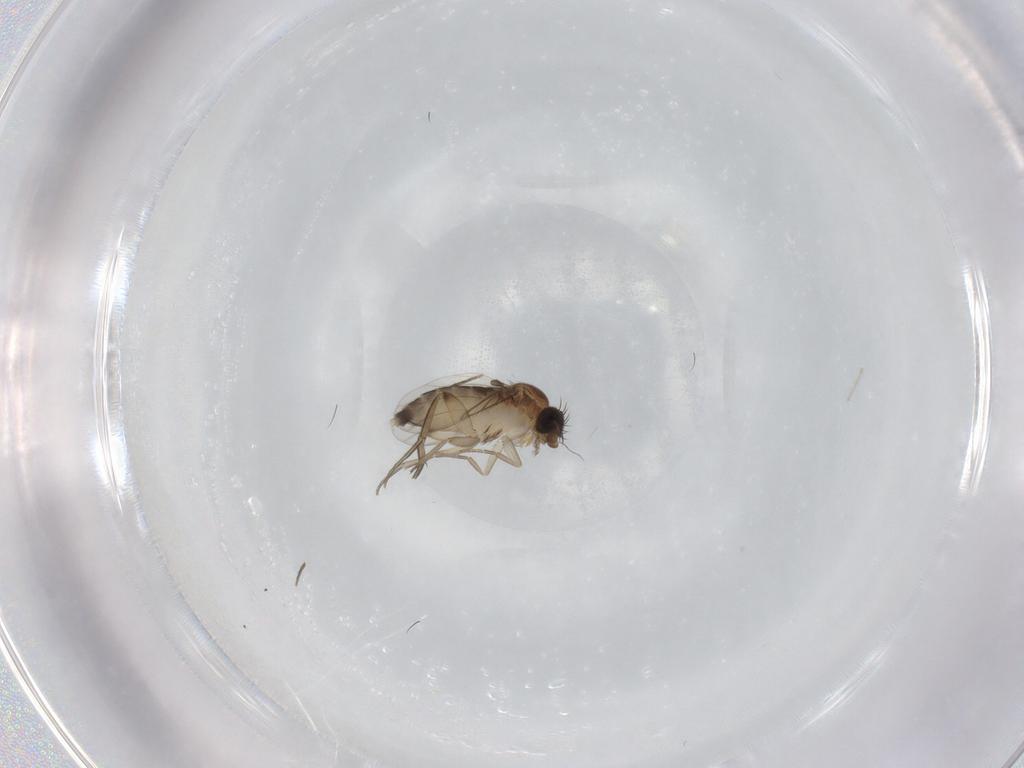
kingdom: Animalia
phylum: Arthropoda
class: Insecta
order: Diptera
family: Phoridae
